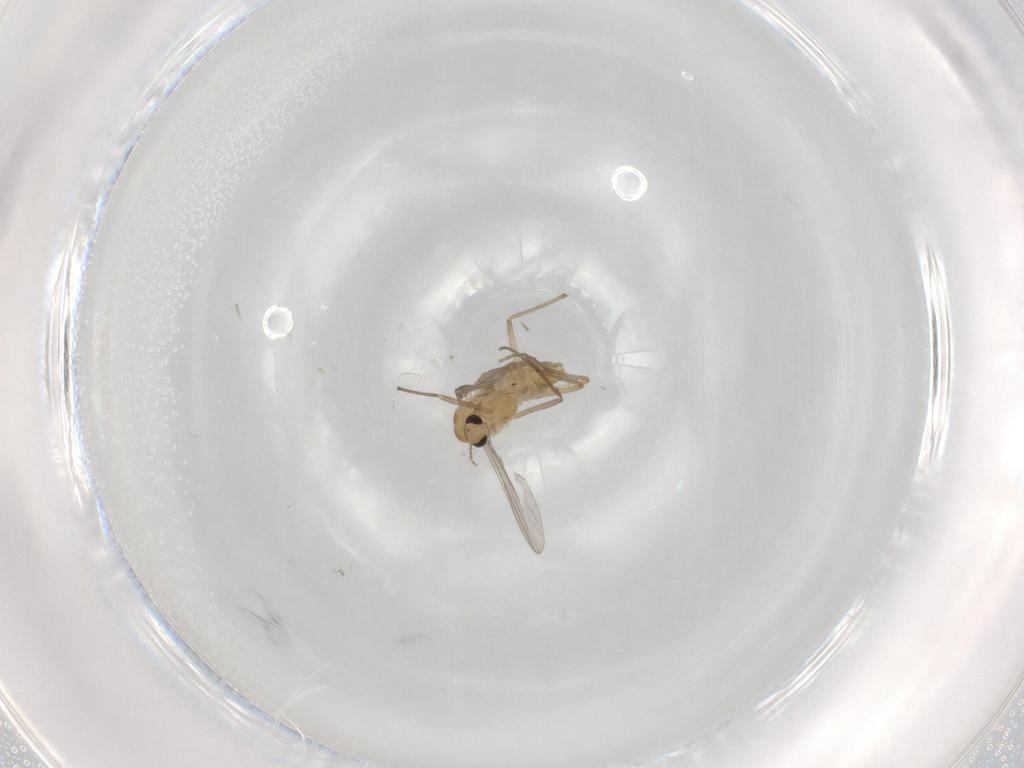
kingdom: Animalia
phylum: Arthropoda
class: Insecta
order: Diptera
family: Chironomidae
